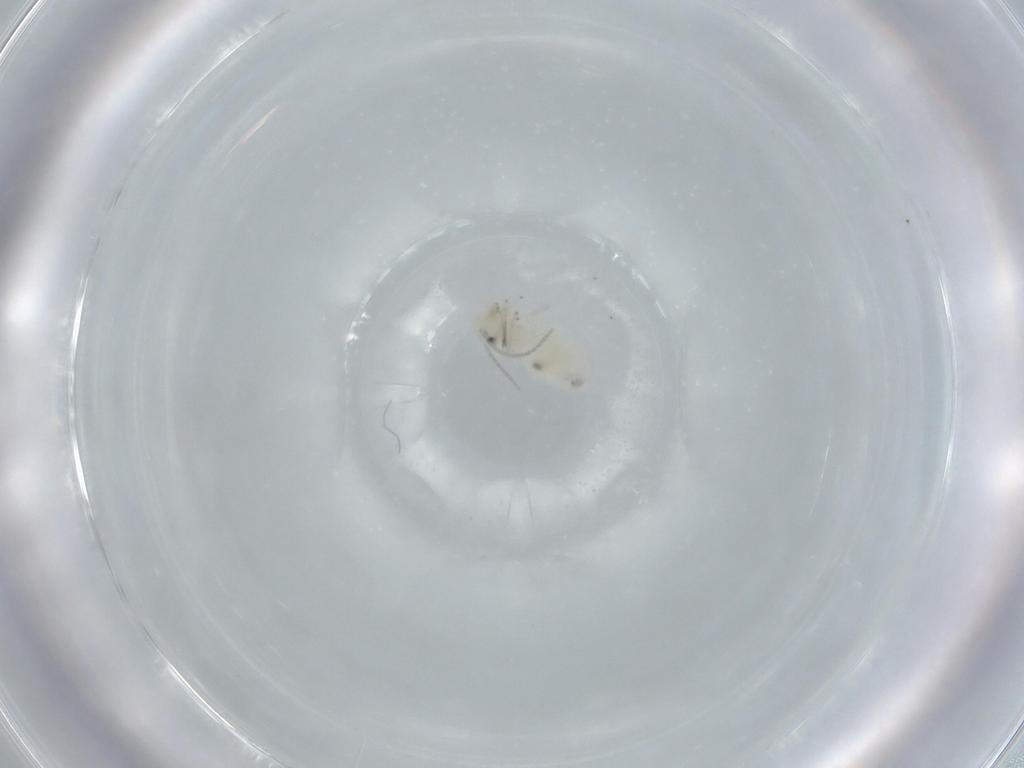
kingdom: Animalia
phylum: Arthropoda
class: Insecta
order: Psocodea
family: Caeciliusidae
